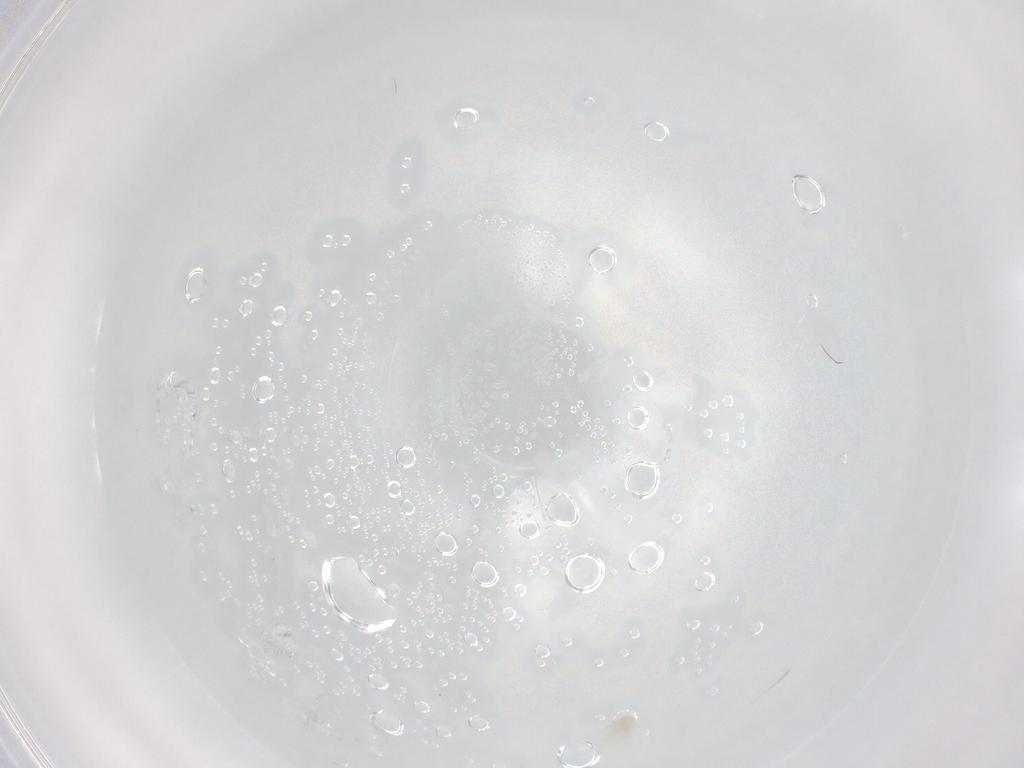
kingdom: Animalia
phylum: Arthropoda
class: Arachnida
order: Trombidiformes
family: Eupodidae
